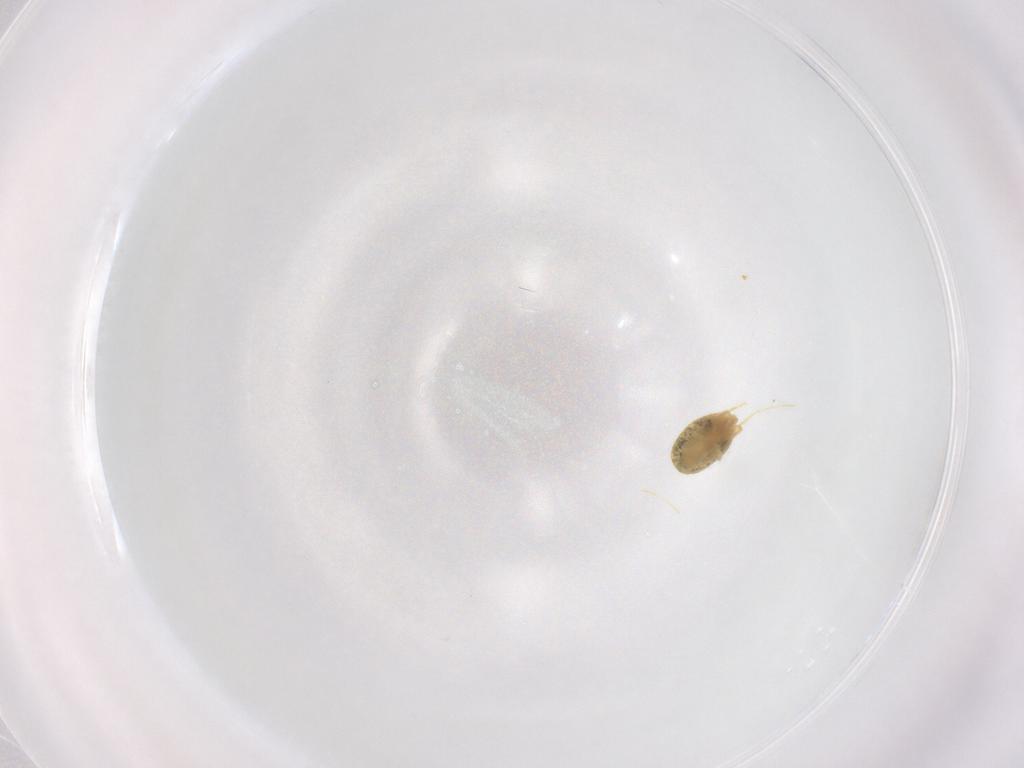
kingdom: Animalia
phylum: Arthropoda
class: Arachnida
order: Trombidiformes
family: Tetranychidae
